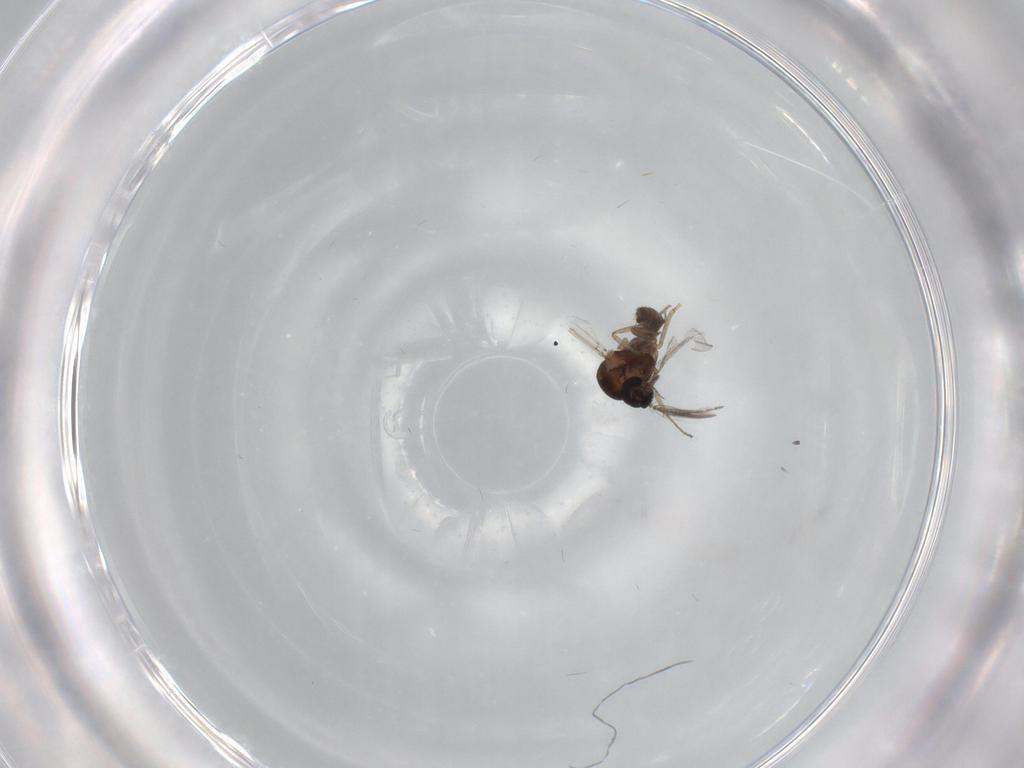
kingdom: Animalia
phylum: Arthropoda
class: Insecta
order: Diptera
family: Cecidomyiidae
